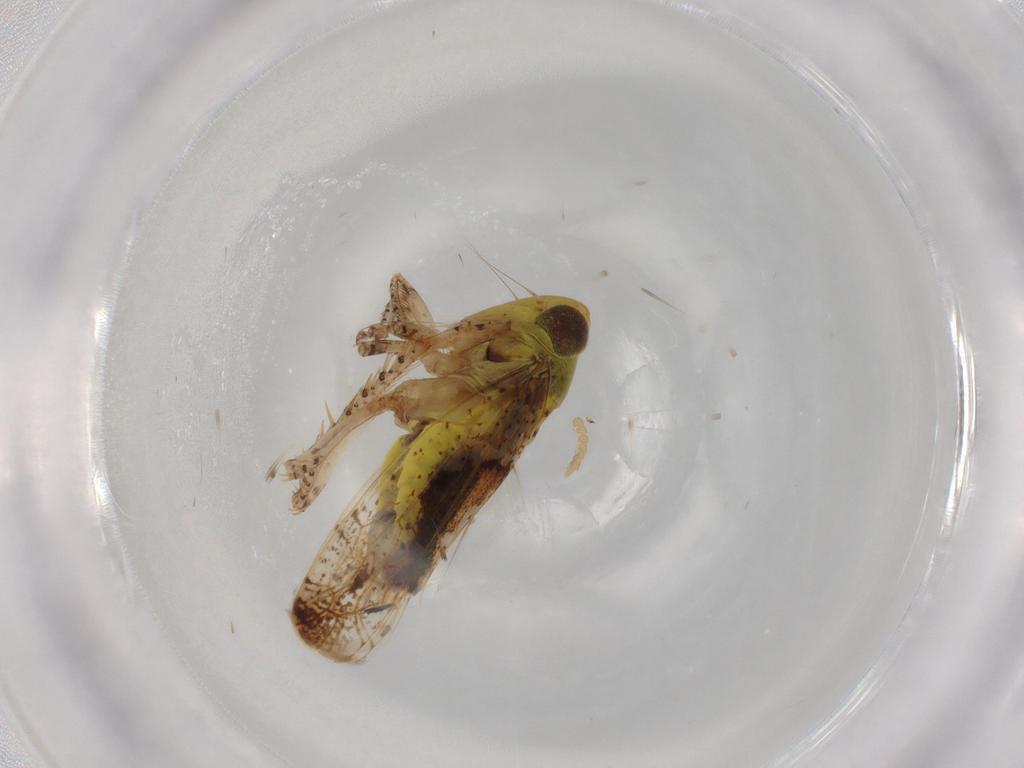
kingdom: Animalia
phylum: Arthropoda
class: Insecta
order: Hemiptera
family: Cicadellidae
